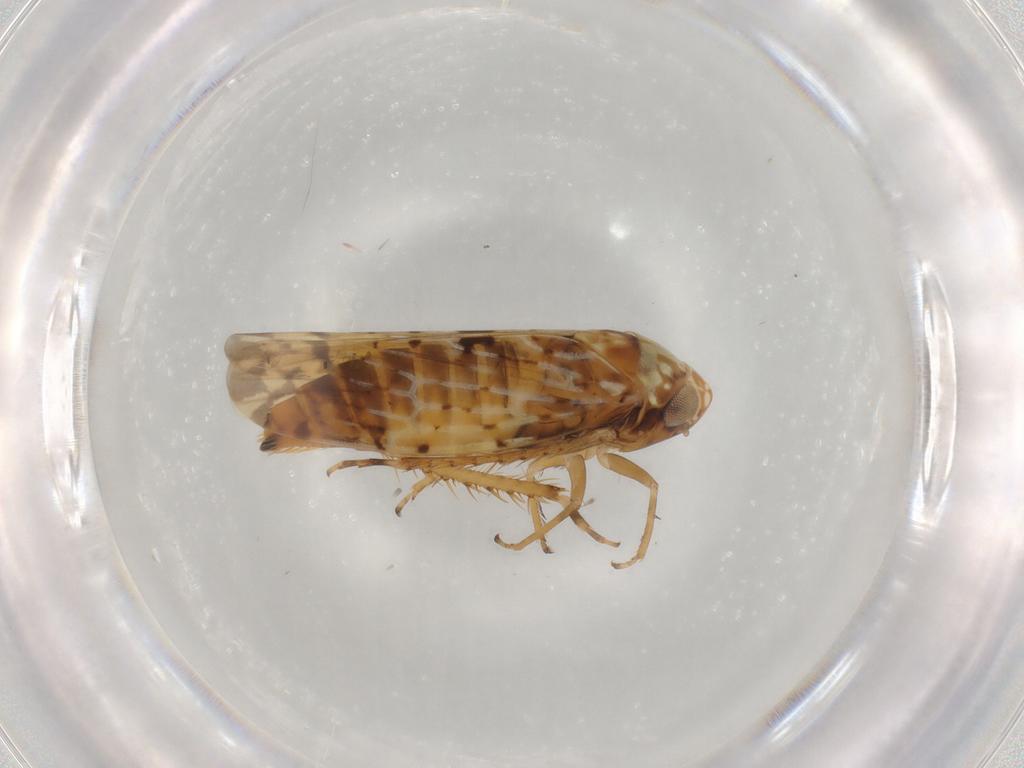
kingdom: Animalia
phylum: Arthropoda
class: Insecta
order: Hemiptera
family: Cicadellidae
